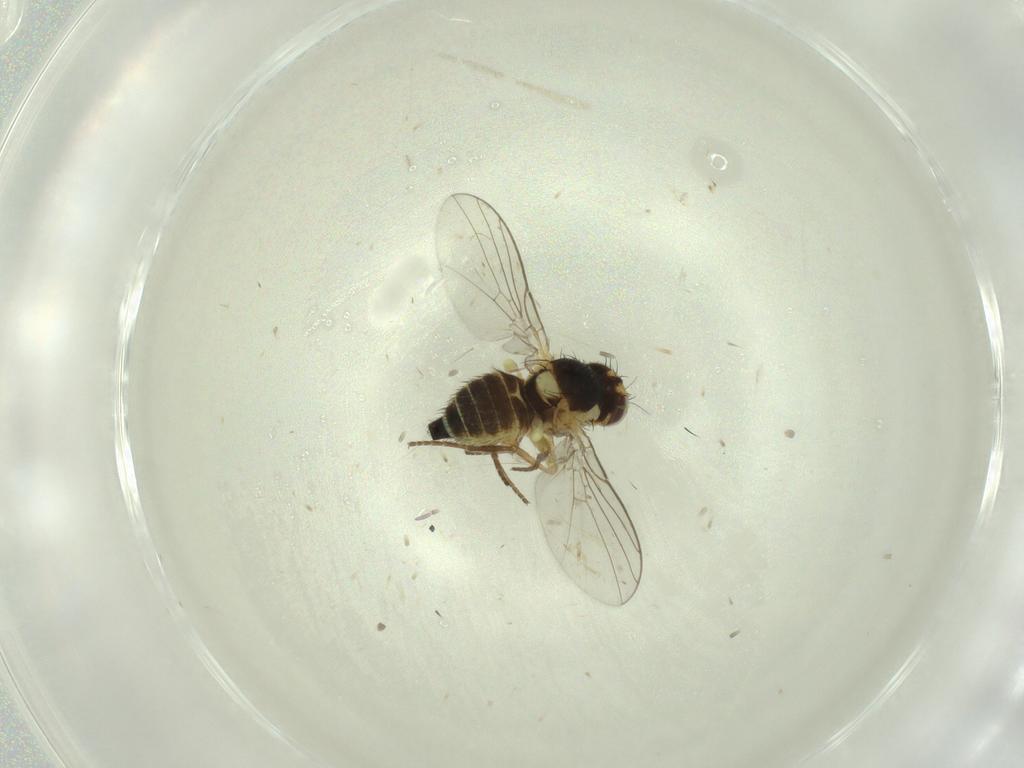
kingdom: Animalia
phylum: Arthropoda
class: Insecta
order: Diptera
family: Agromyzidae
